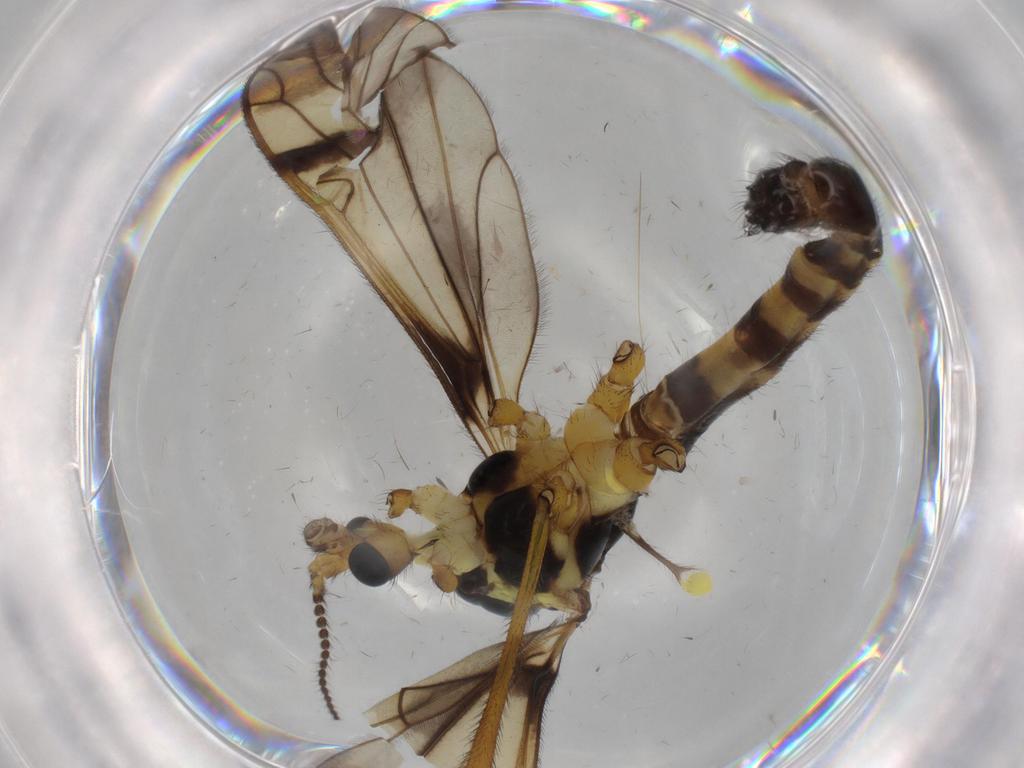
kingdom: Animalia
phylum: Arthropoda
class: Insecta
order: Diptera
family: Limoniidae
